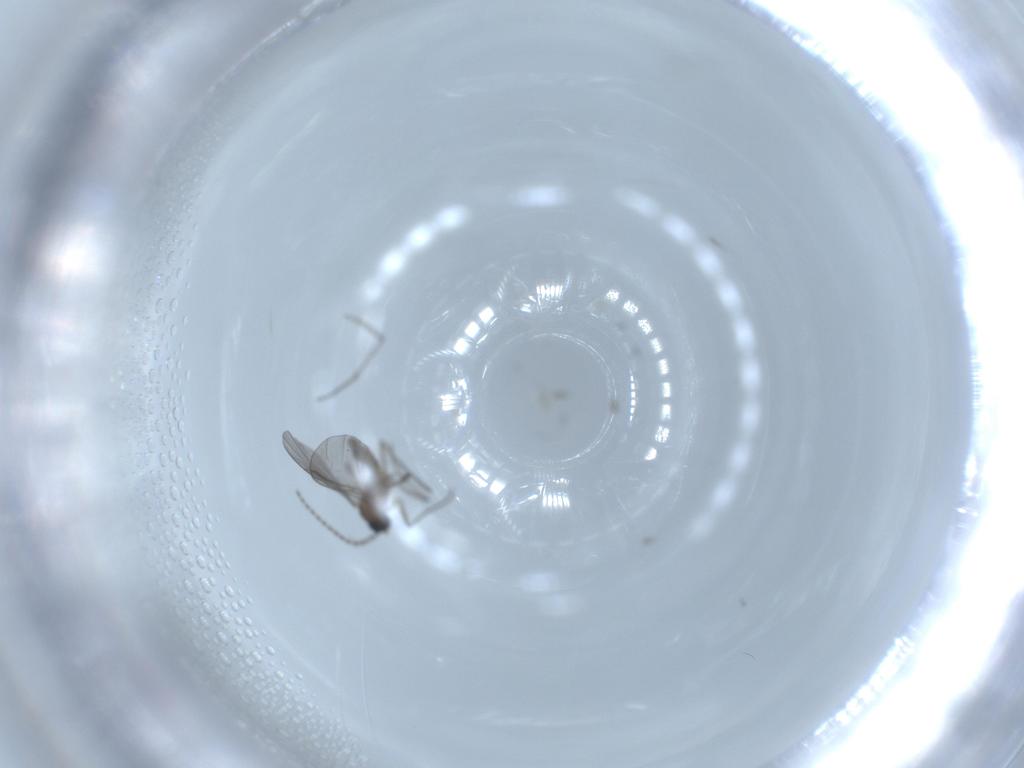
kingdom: Animalia
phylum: Arthropoda
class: Insecta
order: Diptera
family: Sciaridae
